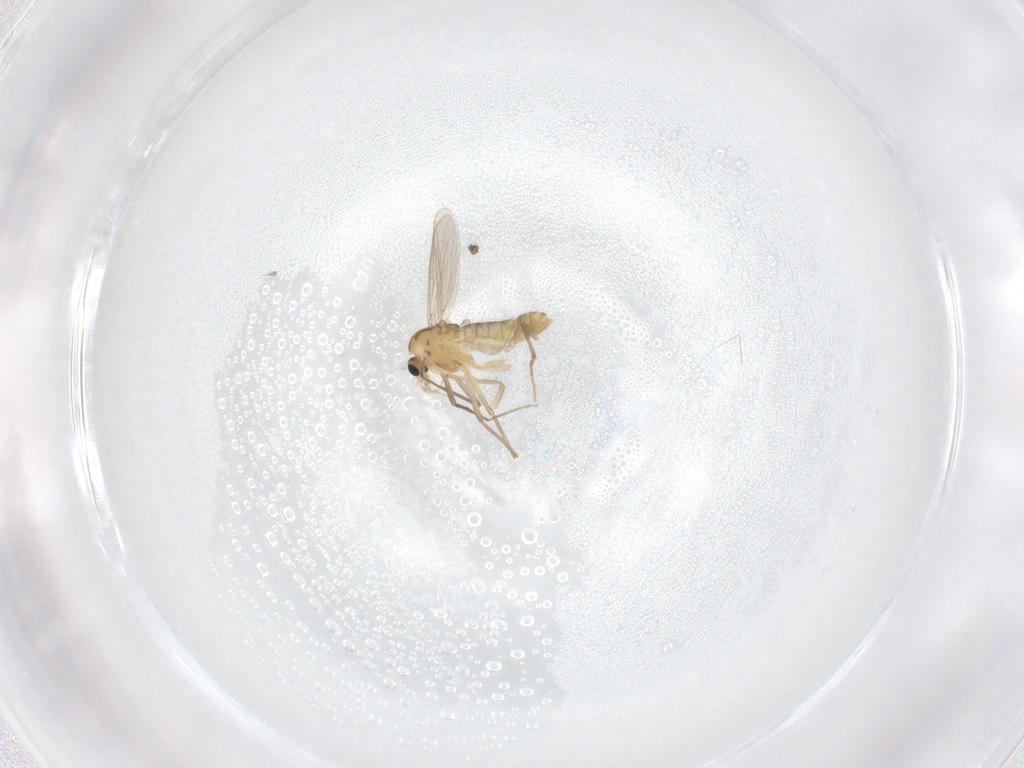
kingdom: Animalia
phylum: Arthropoda
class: Insecta
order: Diptera
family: Chironomidae
